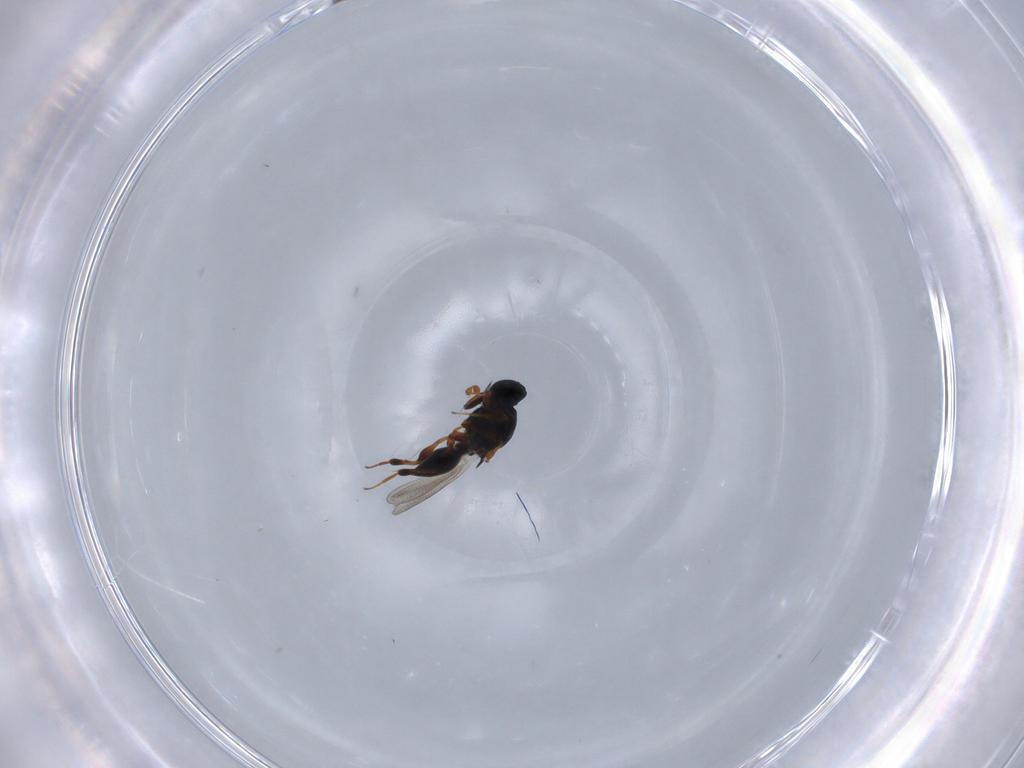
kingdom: Animalia
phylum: Arthropoda
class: Insecta
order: Hymenoptera
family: Platygastridae
